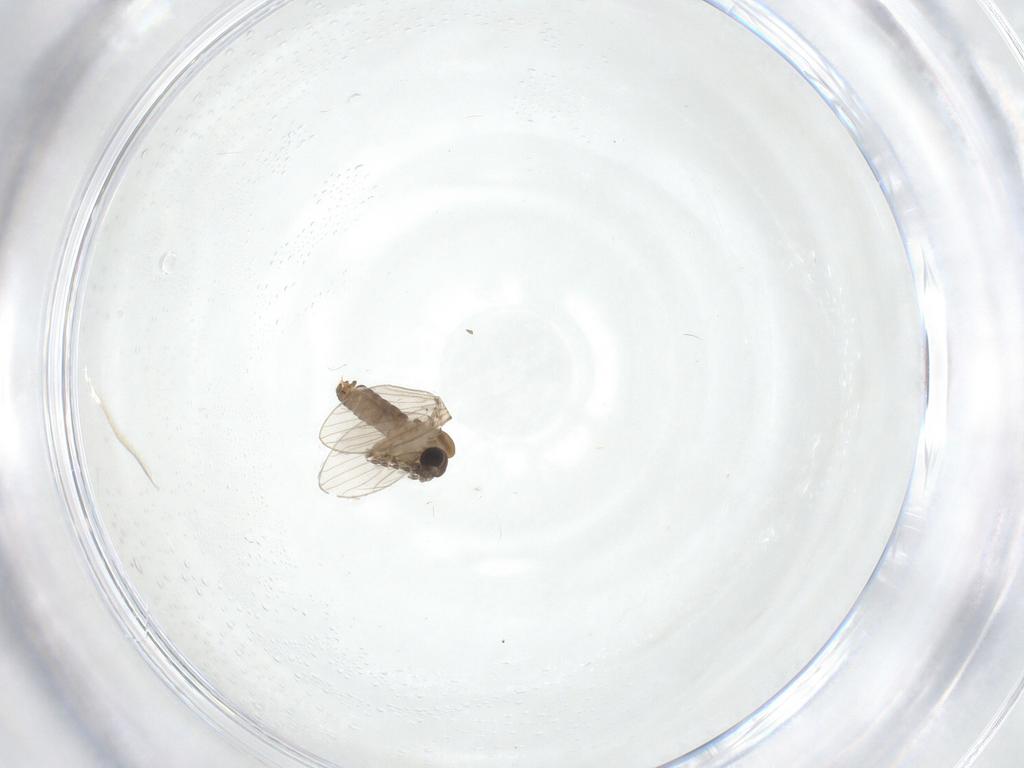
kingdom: Animalia
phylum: Arthropoda
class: Insecta
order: Diptera
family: Psychodidae
